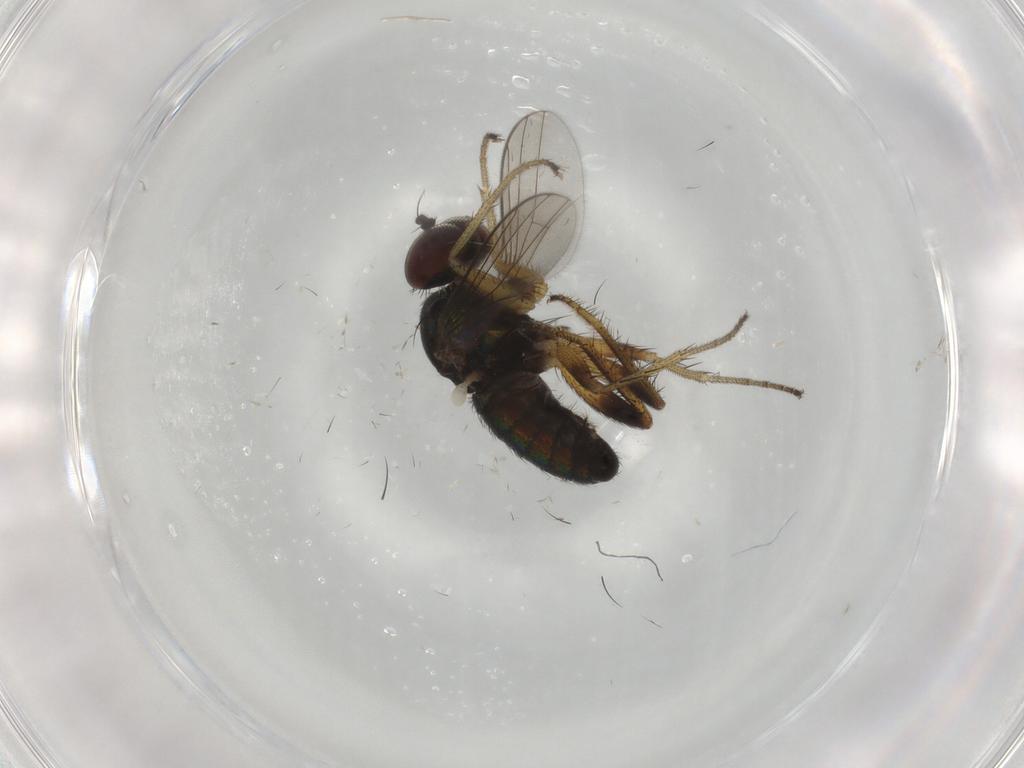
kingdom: Animalia
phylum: Arthropoda
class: Insecta
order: Diptera
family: Dolichopodidae
